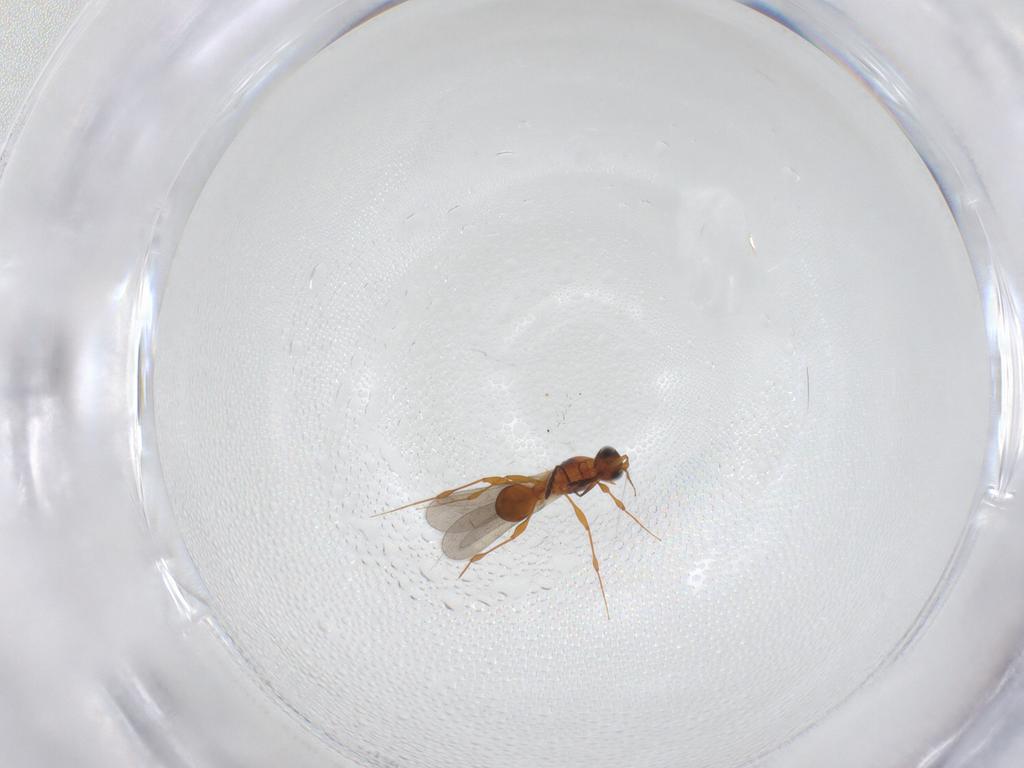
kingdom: Animalia
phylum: Arthropoda
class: Insecta
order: Hymenoptera
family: Platygastridae
